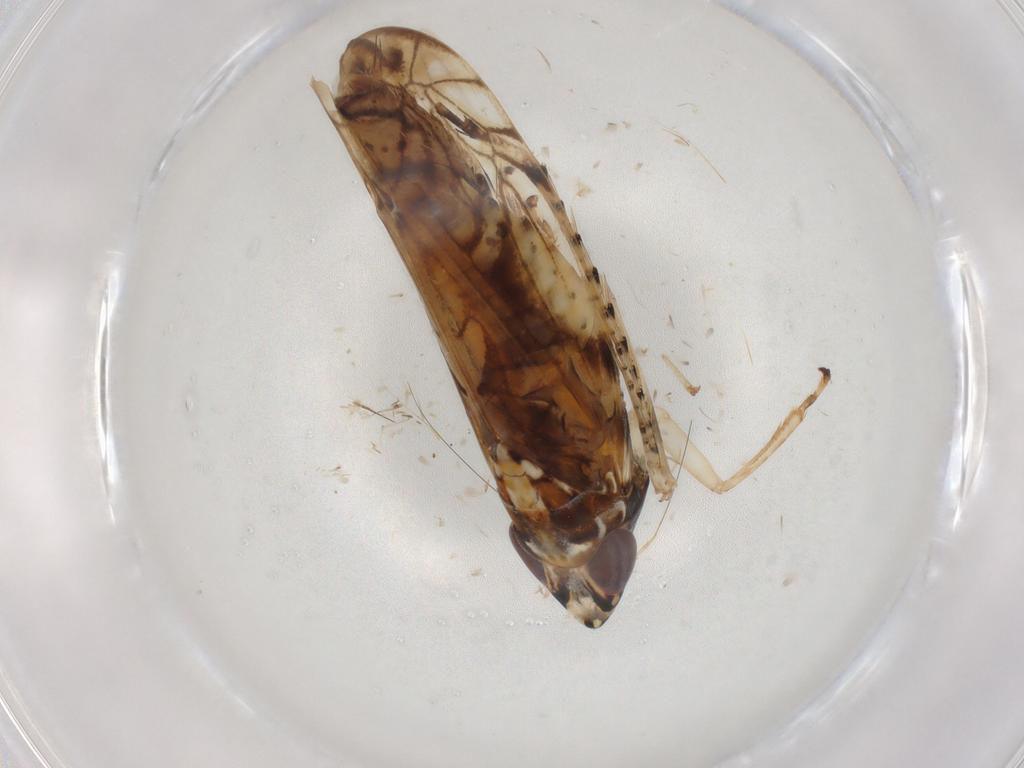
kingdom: Animalia
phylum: Arthropoda
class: Insecta
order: Hemiptera
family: Cicadellidae
